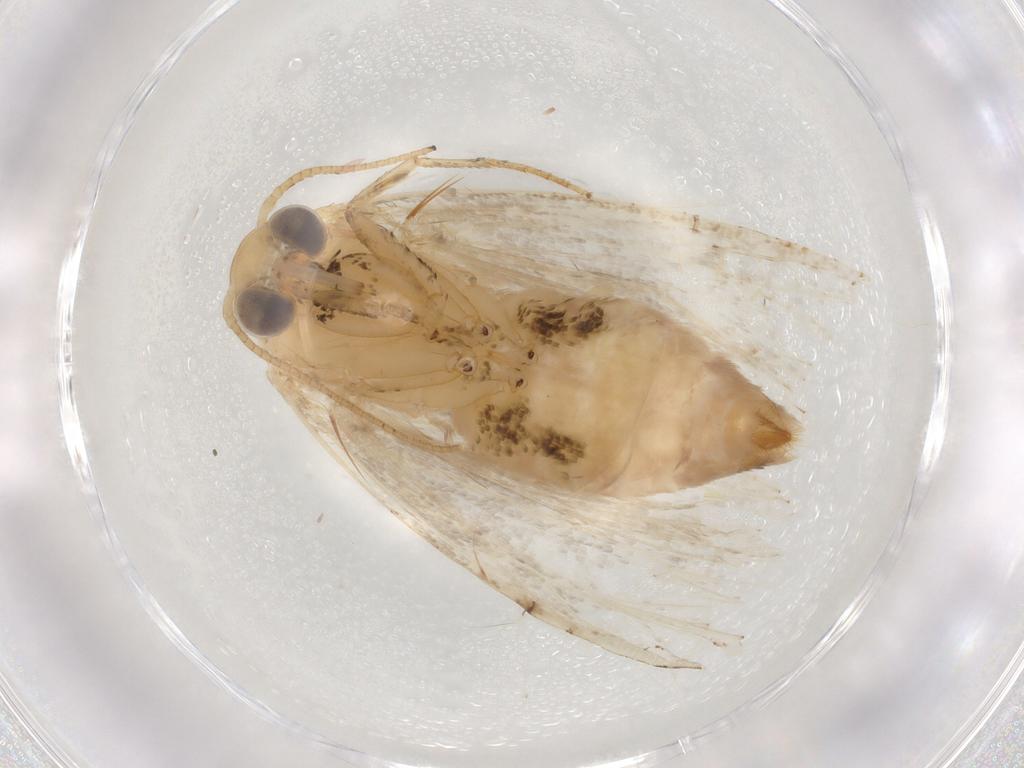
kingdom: Animalia
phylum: Arthropoda
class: Insecta
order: Lepidoptera
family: Nolidae
